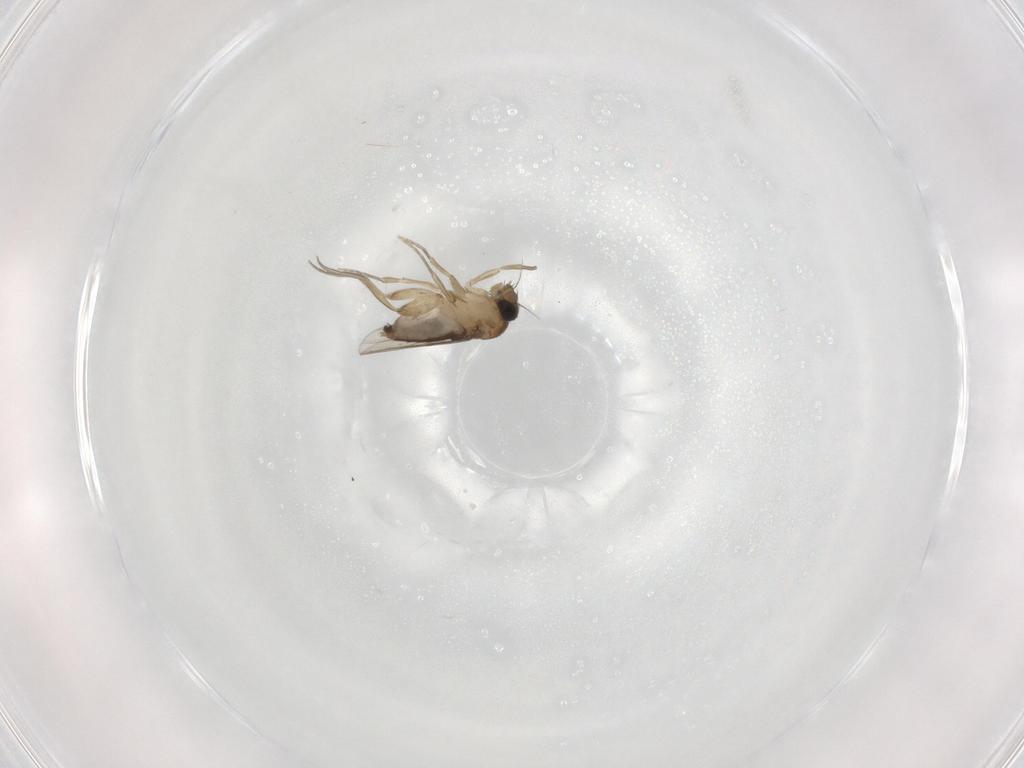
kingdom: Animalia
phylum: Arthropoda
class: Insecta
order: Diptera
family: Phoridae
